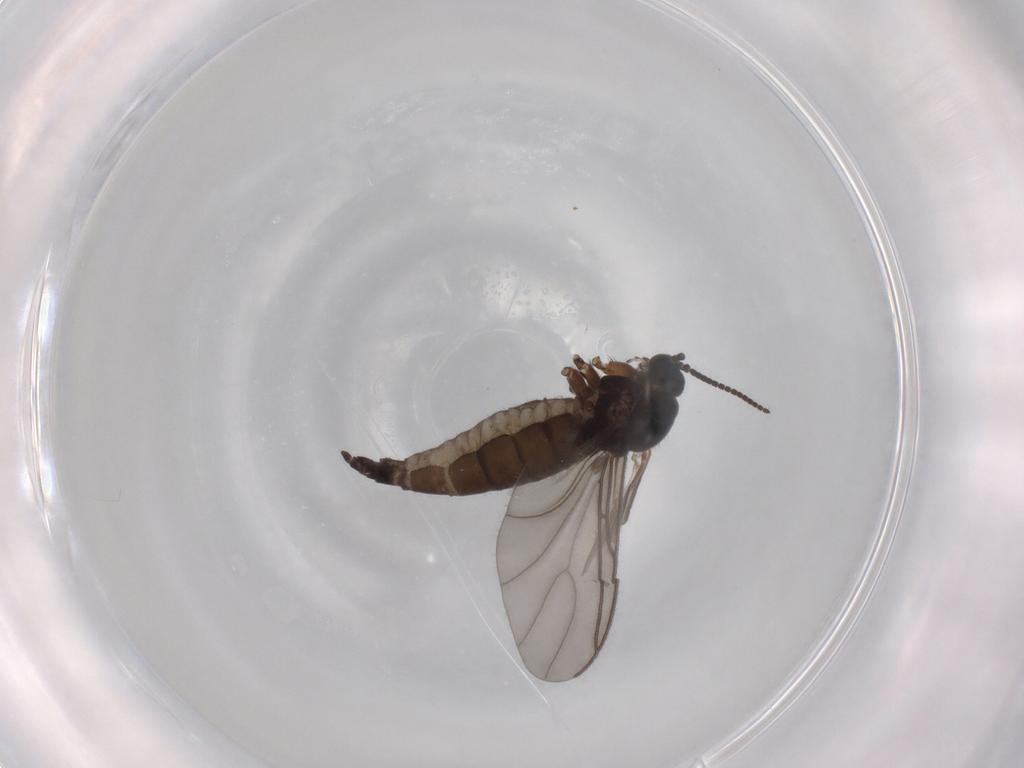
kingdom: Animalia
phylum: Arthropoda
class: Insecta
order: Diptera
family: Sciaridae
